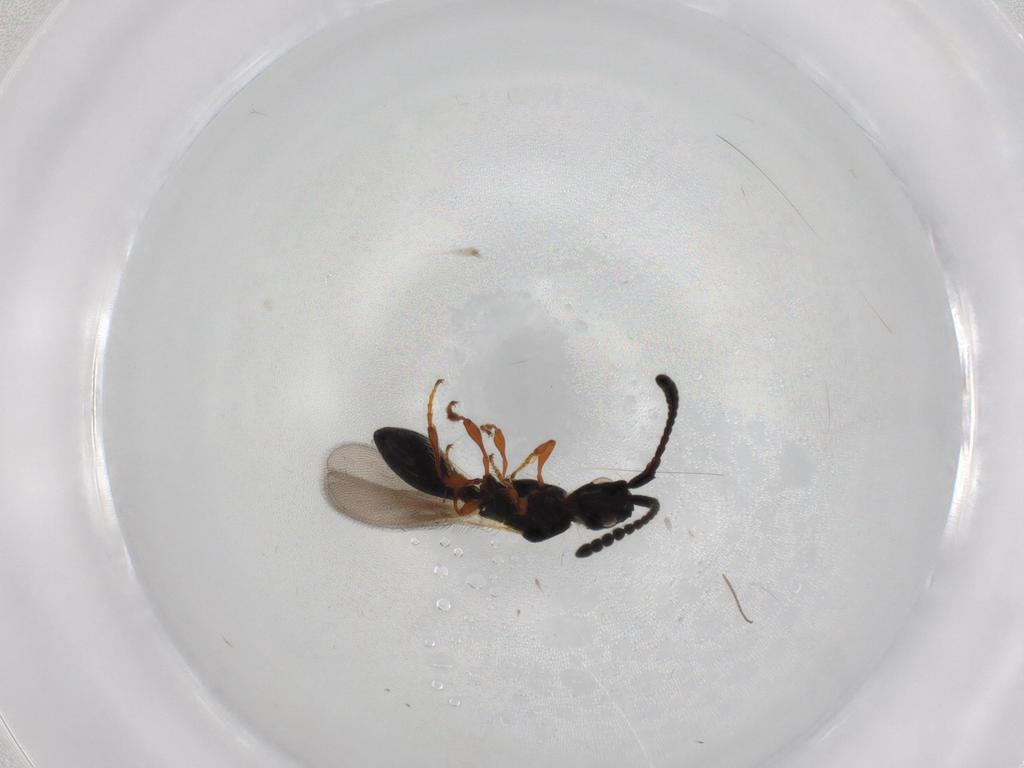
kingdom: Animalia
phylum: Arthropoda
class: Insecta
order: Hymenoptera
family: Diapriidae
